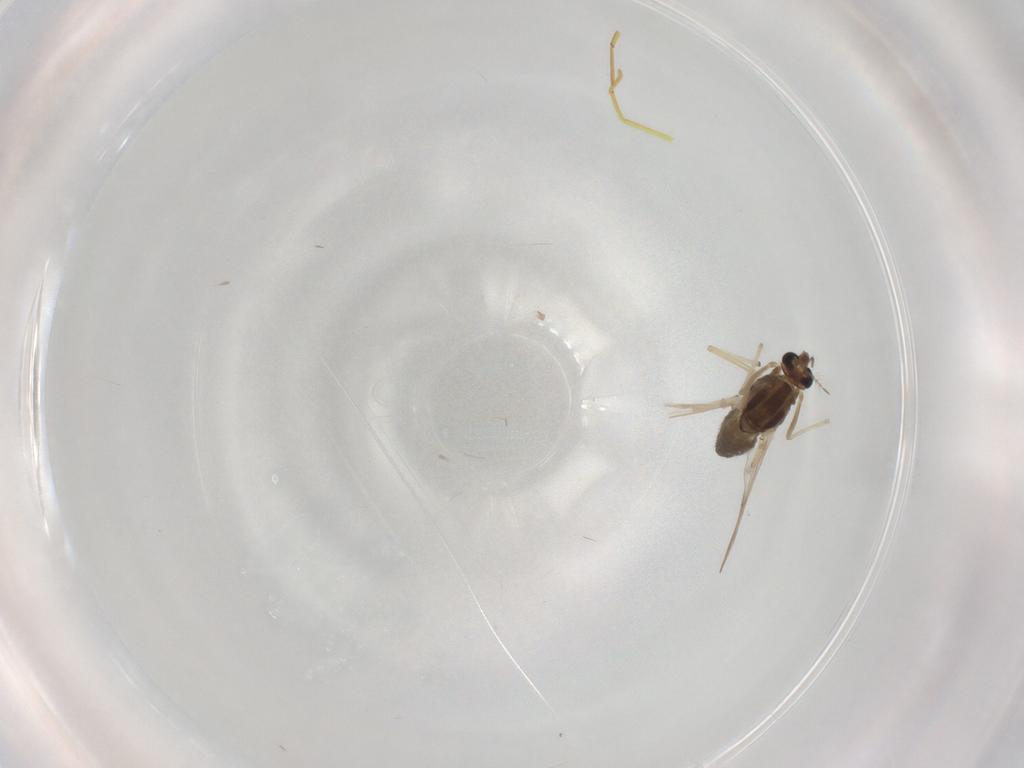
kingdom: Animalia
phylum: Arthropoda
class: Insecta
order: Diptera
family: Chironomidae
